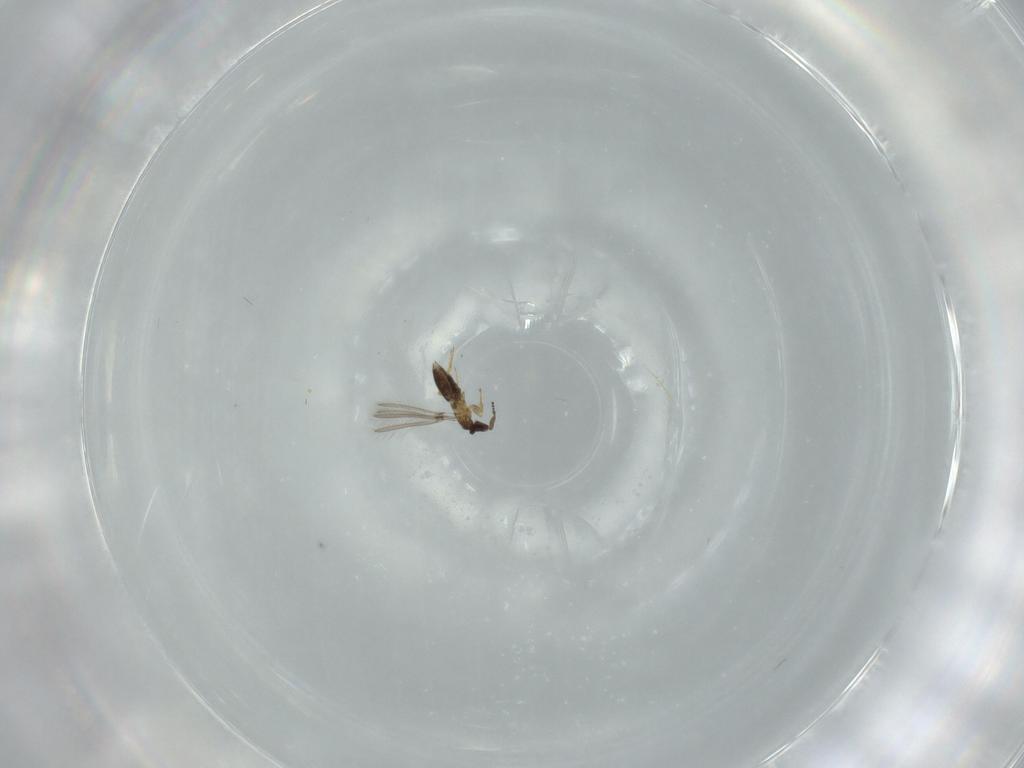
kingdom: Animalia
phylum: Arthropoda
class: Insecta
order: Hymenoptera
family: Mymaridae
